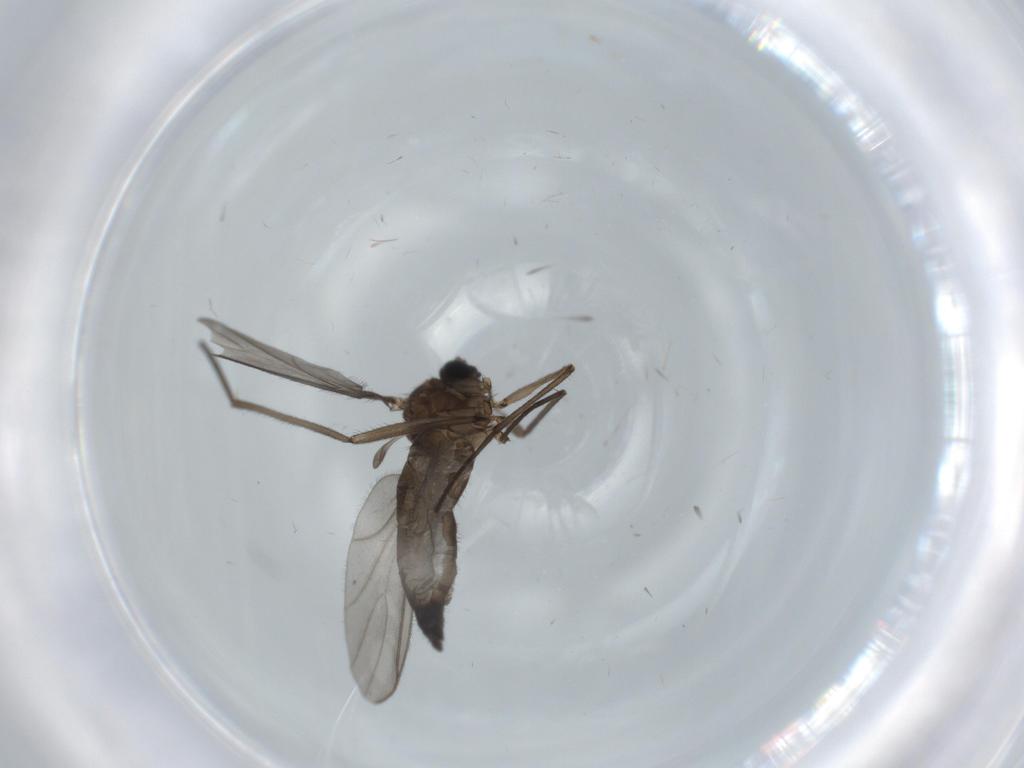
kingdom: Animalia
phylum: Arthropoda
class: Insecta
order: Diptera
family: Sciaridae
